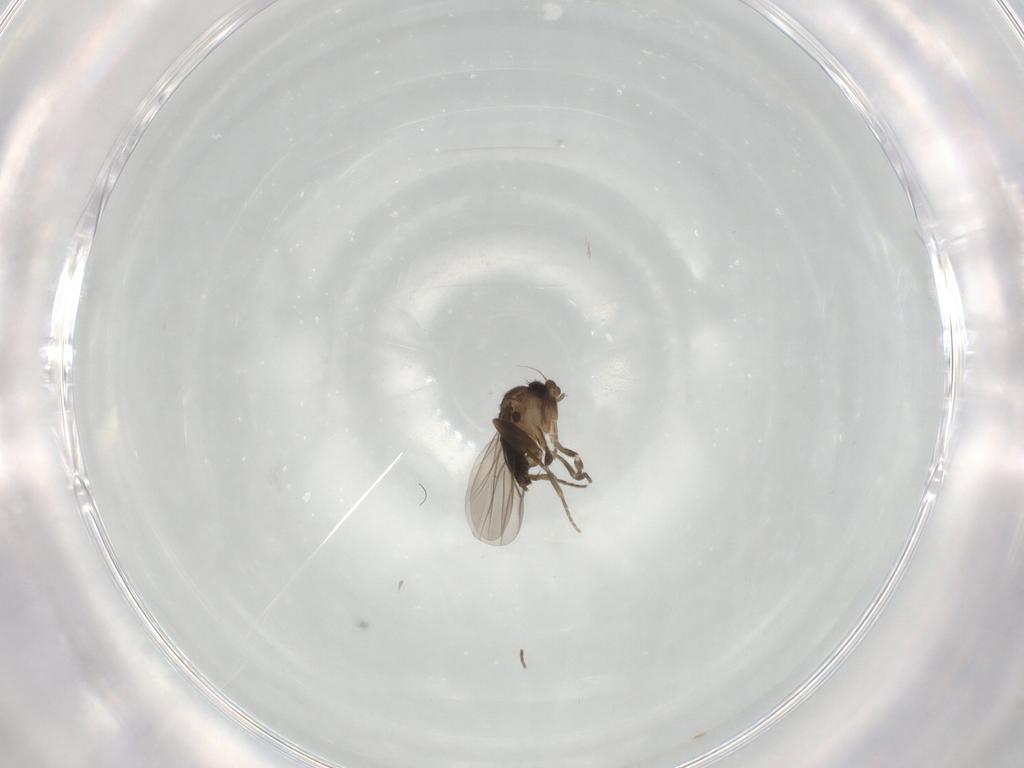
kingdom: Animalia
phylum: Arthropoda
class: Insecta
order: Diptera
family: Phoridae
